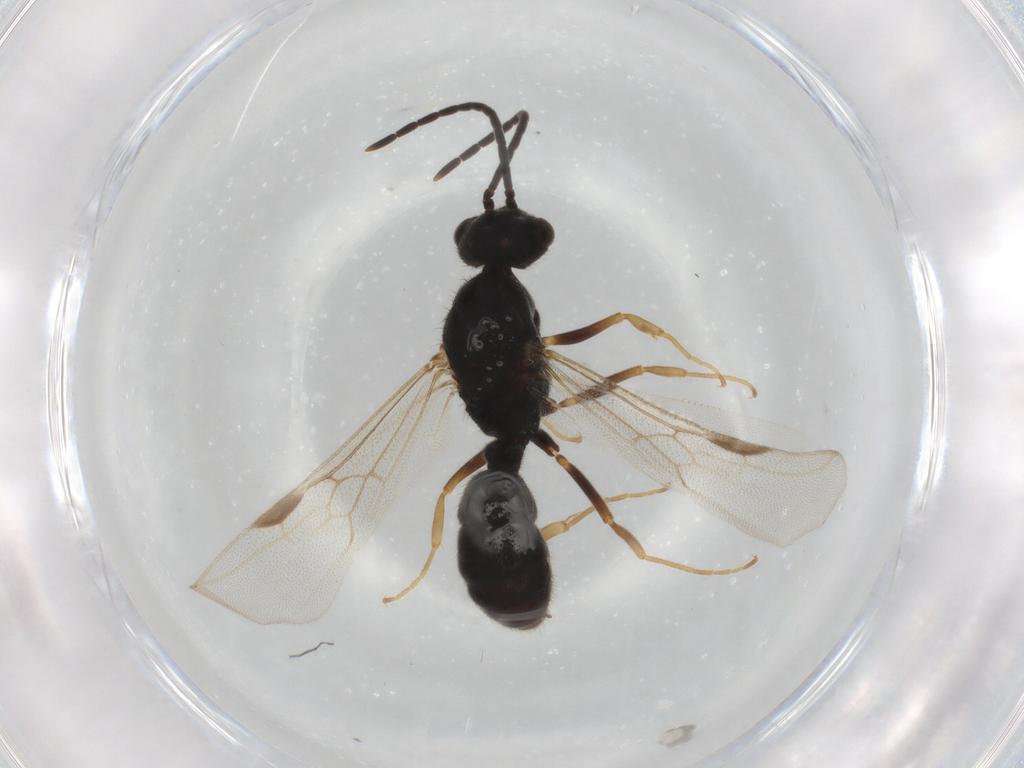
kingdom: Animalia
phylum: Arthropoda
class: Insecta
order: Hymenoptera
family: Formicidae
